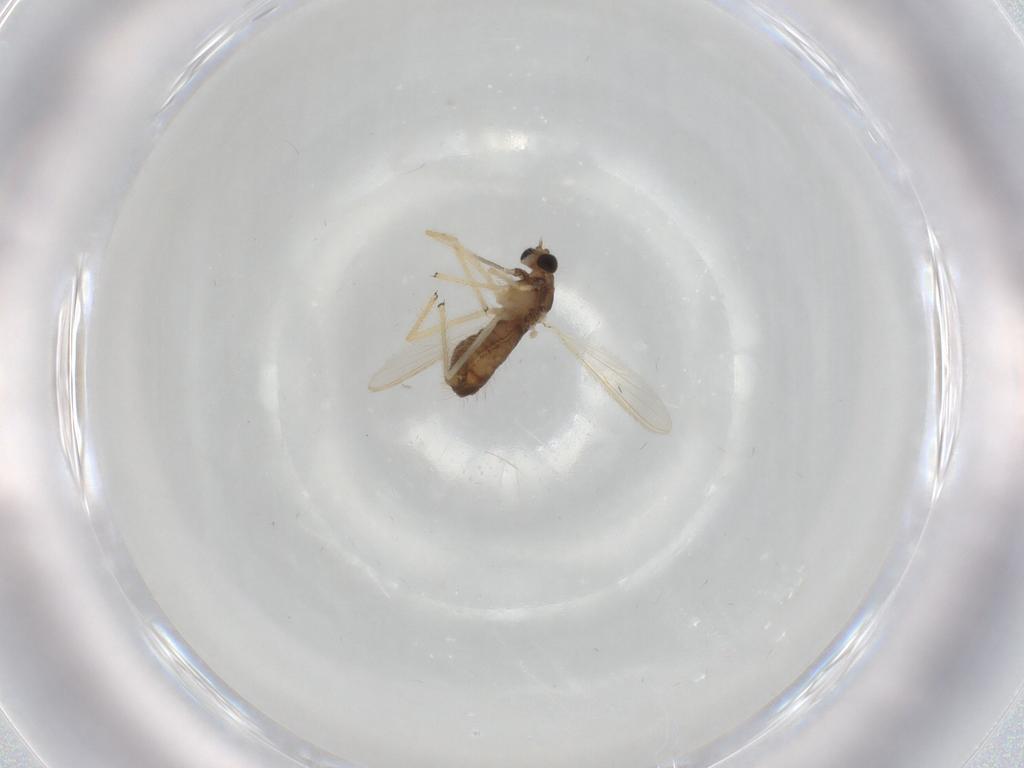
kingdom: Animalia
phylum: Arthropoda
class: Insecta
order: Diptera
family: Chironomidae
